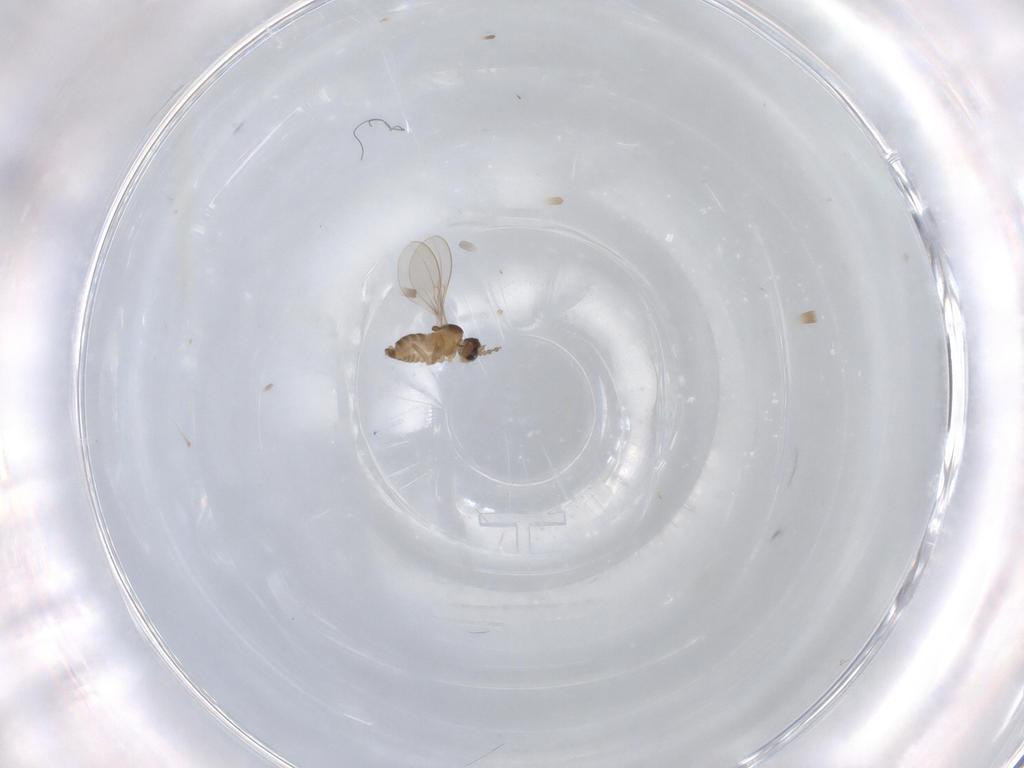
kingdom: Animalia
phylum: Arthropoda
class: Insecta
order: Diptera
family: Cecidomyiidae
